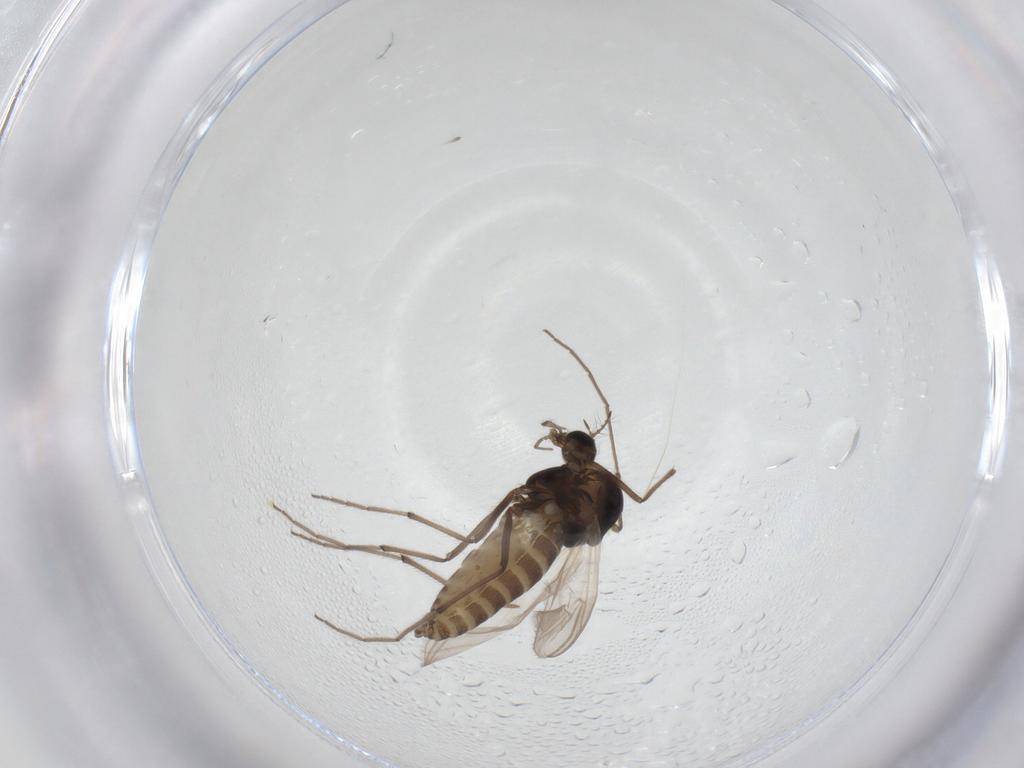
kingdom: Animalia
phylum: Arthropoda
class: Insecta
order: Diptera
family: Chironomidae
